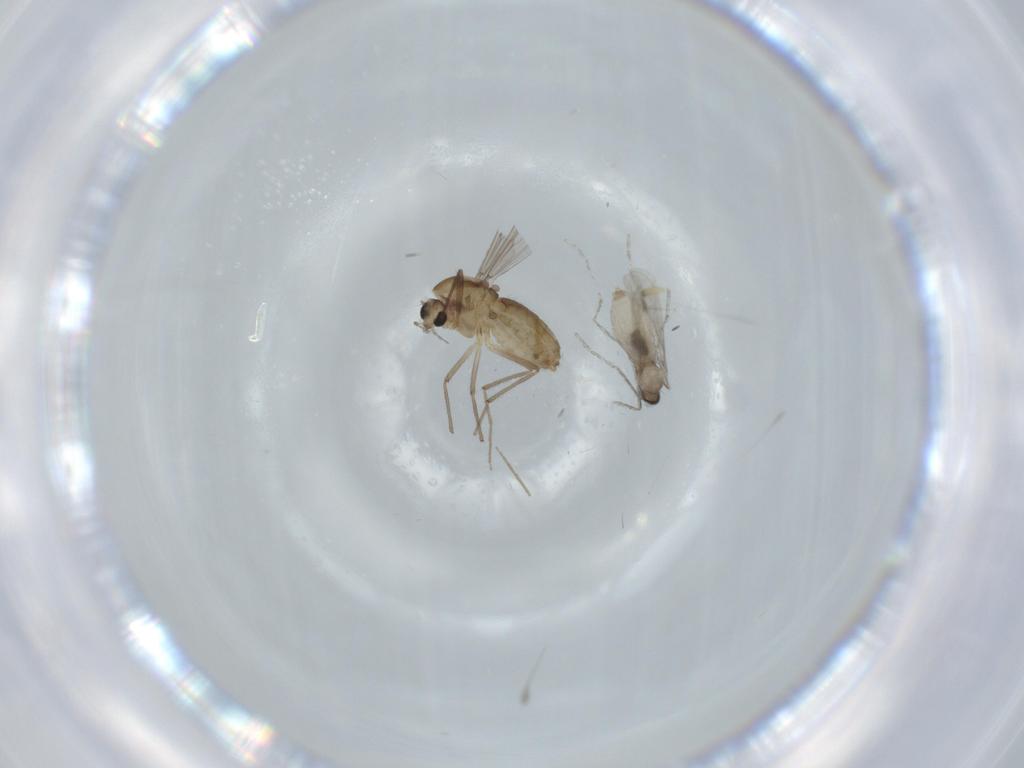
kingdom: Animalia
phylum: Arthropoda
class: Insecta
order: Diptera
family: Chironomidae
